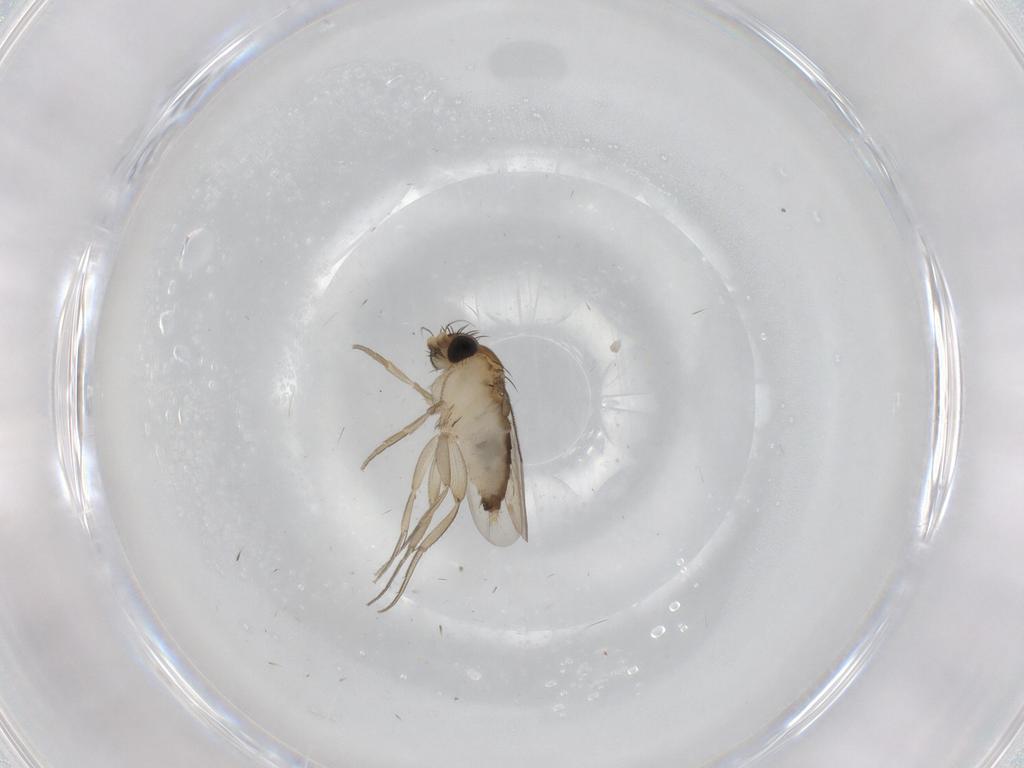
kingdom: Animalia
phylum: Arthropoda
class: Insecta
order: Diptera
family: Phoridae
